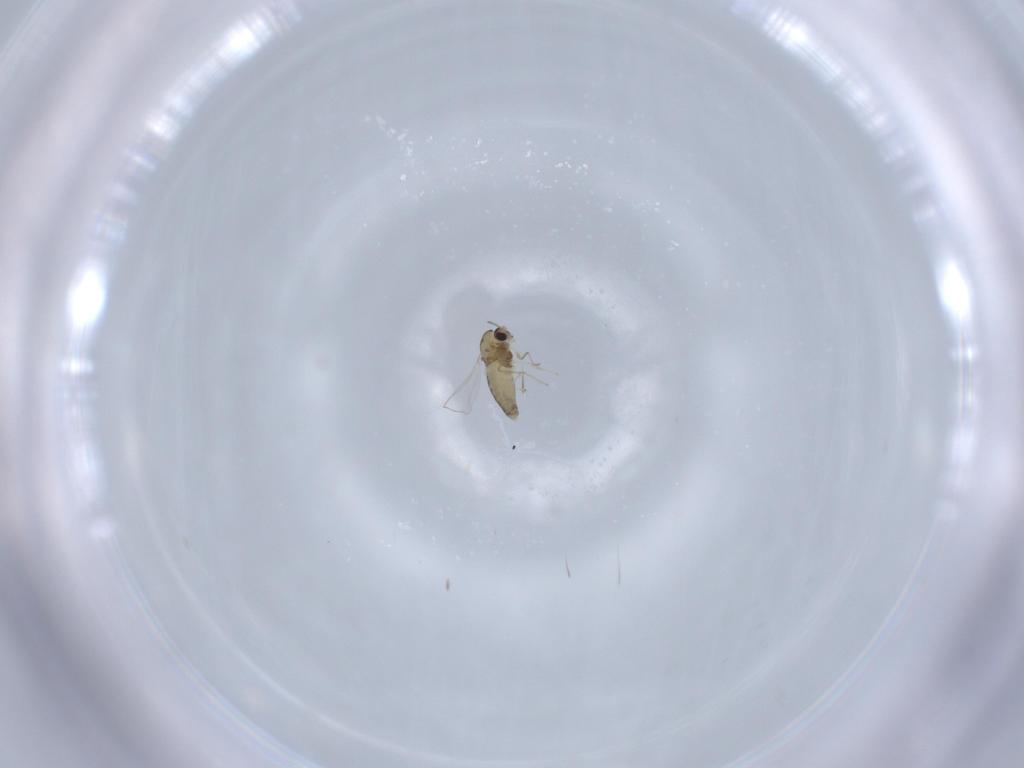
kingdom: Animalia
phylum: Arthropoda
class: Insecta
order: Diptera
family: Chironomidae
